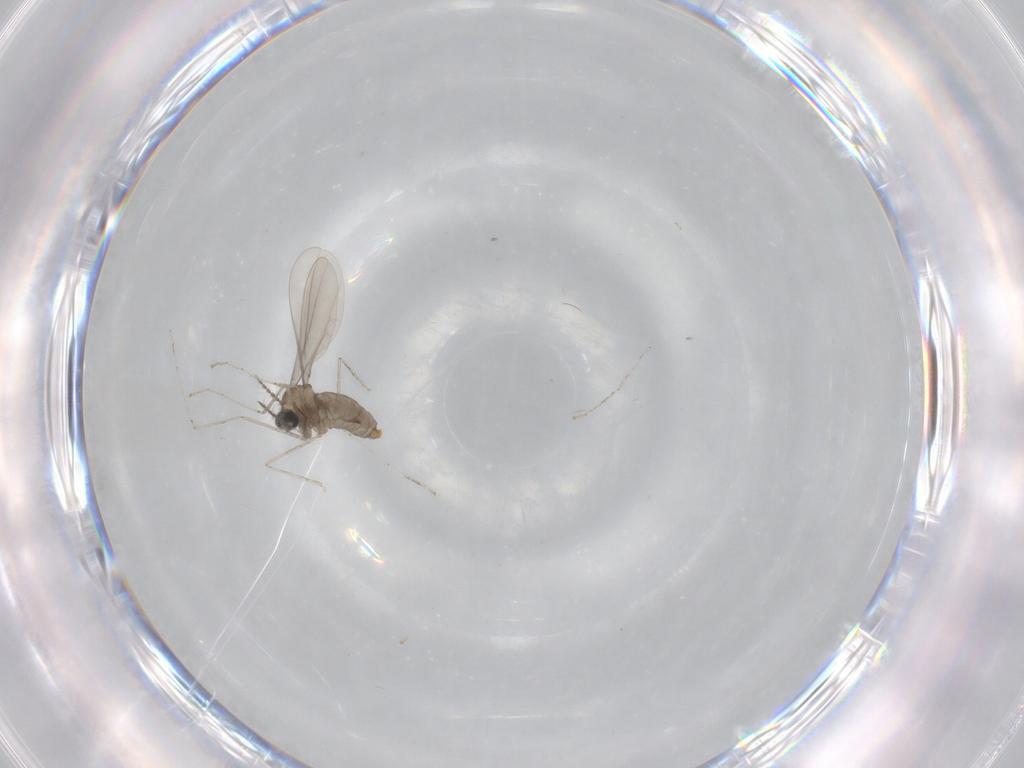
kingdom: Animalia
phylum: Arthropoda
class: Insecta
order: Diptera
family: Cecidomyiidae
